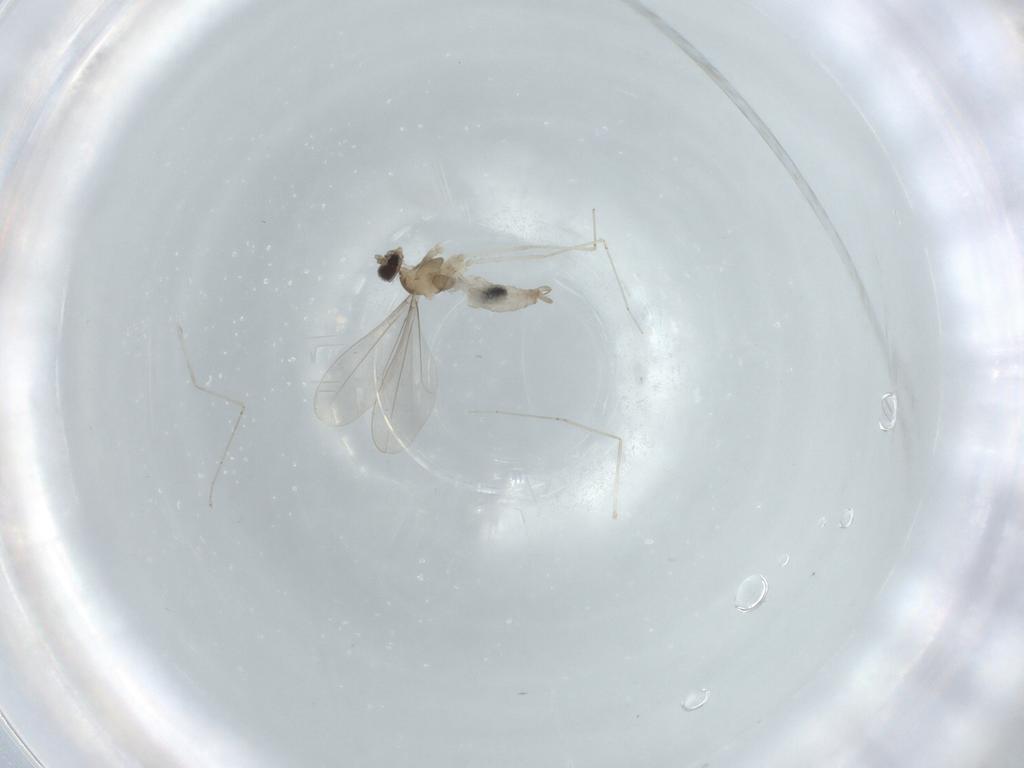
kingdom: Animalia
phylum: Arthropoda
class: Insecta
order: Diptera
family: Cecidomyiidae
